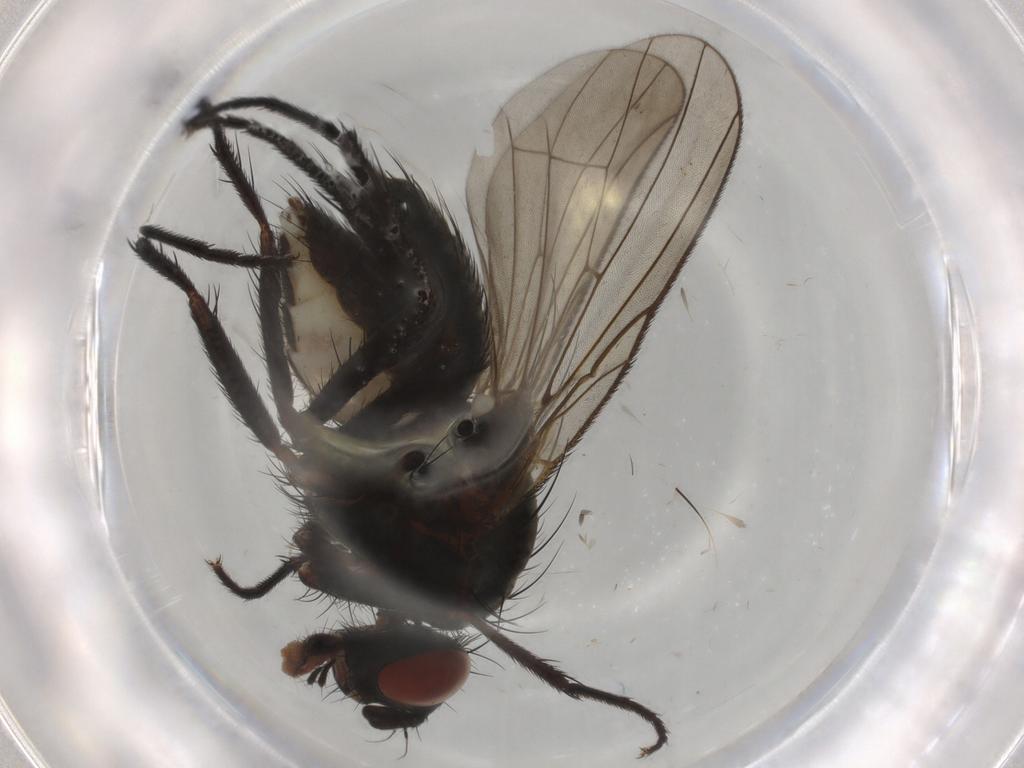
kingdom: Animalia
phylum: Arthropoda
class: Insecta
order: Diptera
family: Anthomyiidae
